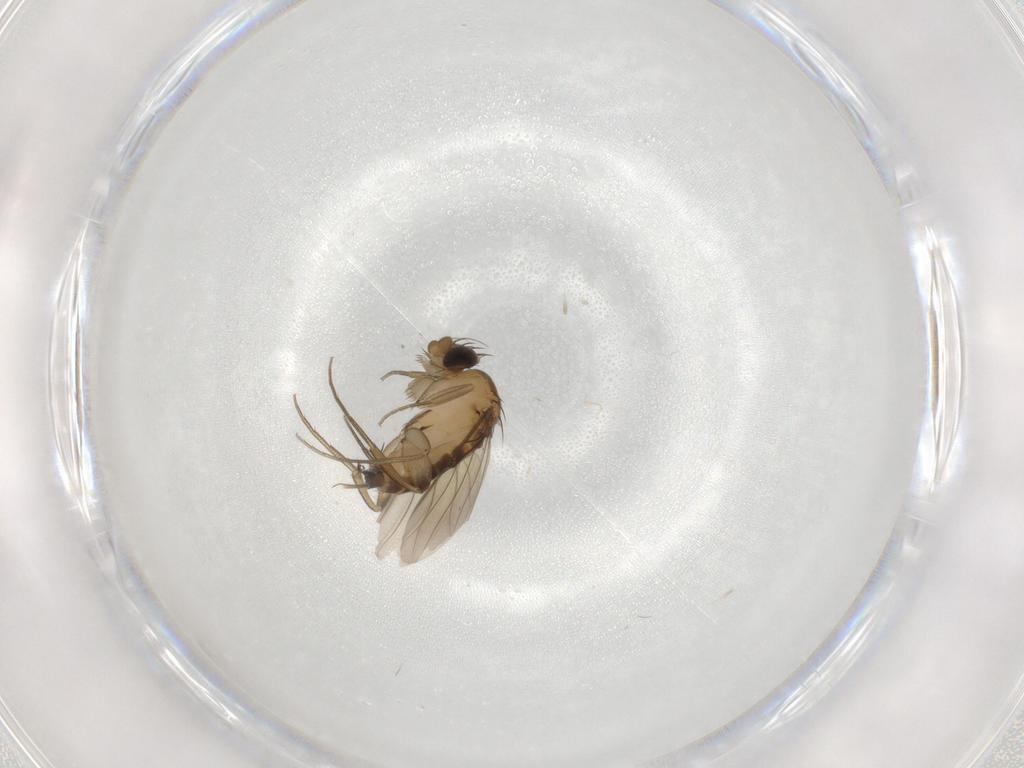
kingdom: Animalia
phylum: Arthropoda
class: Insecta
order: Diptera
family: Phoridae
